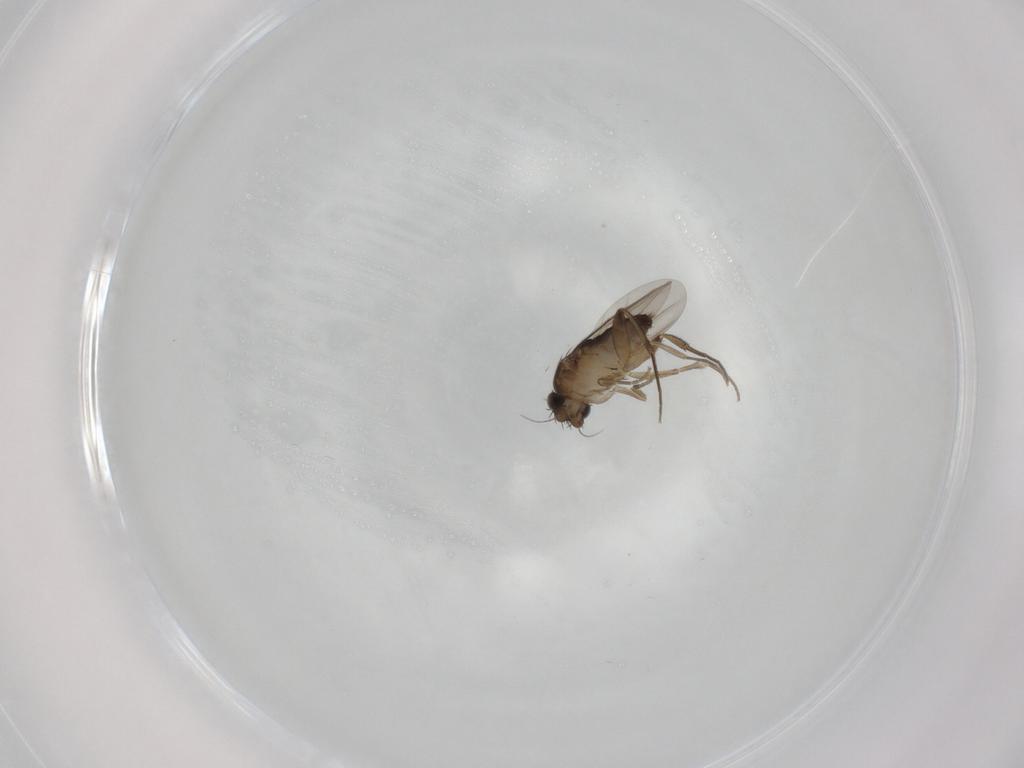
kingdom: Animalia
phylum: Arthropoda
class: Insecta
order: Diptera
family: Phoridae
